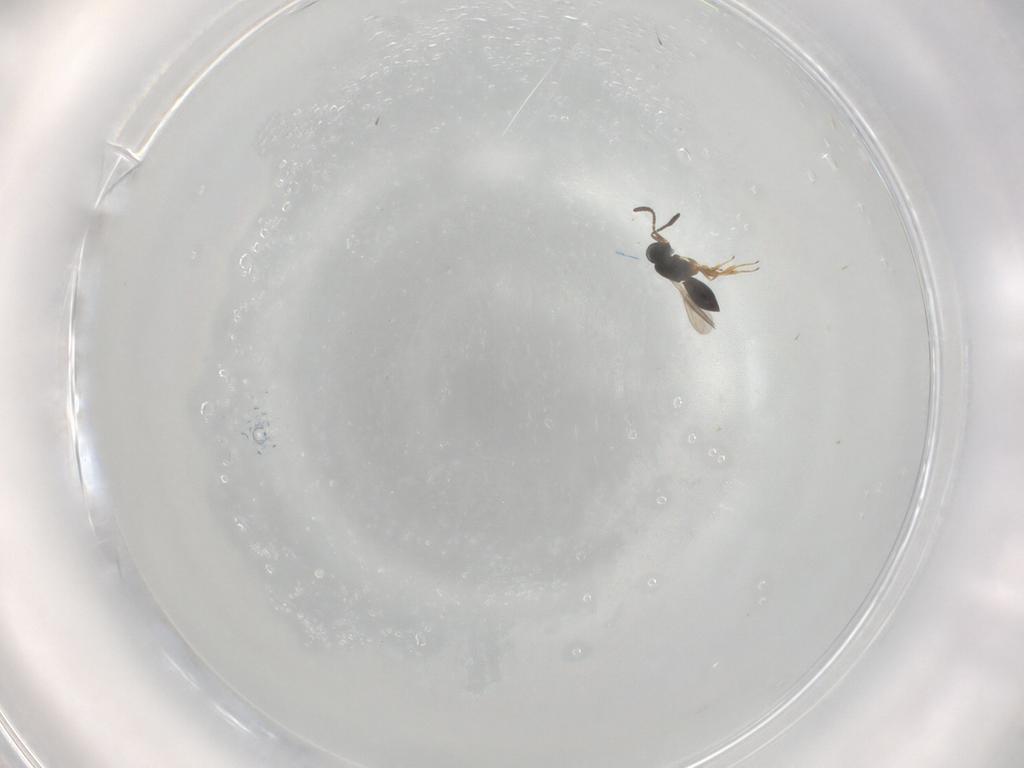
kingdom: Animalia
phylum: Arthropoda
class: Insecta
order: Hymenoptera
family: Scelionidae
